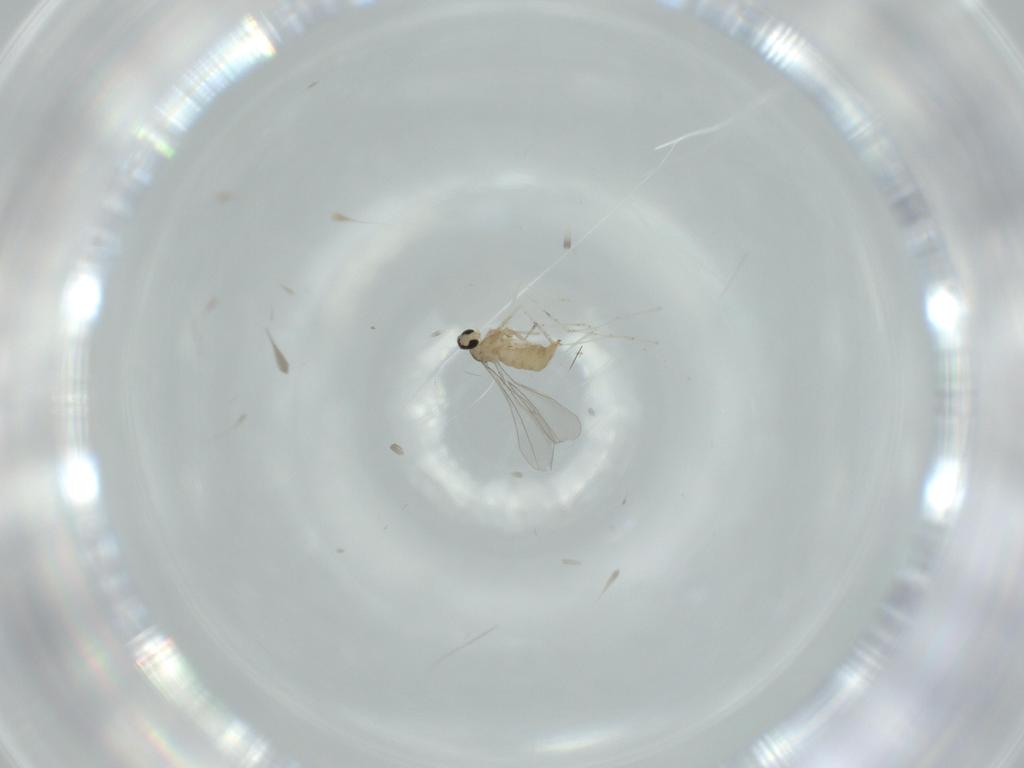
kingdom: Animalia
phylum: Arthropoda
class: Insecta
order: Diptera
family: Cecidomyiidae
